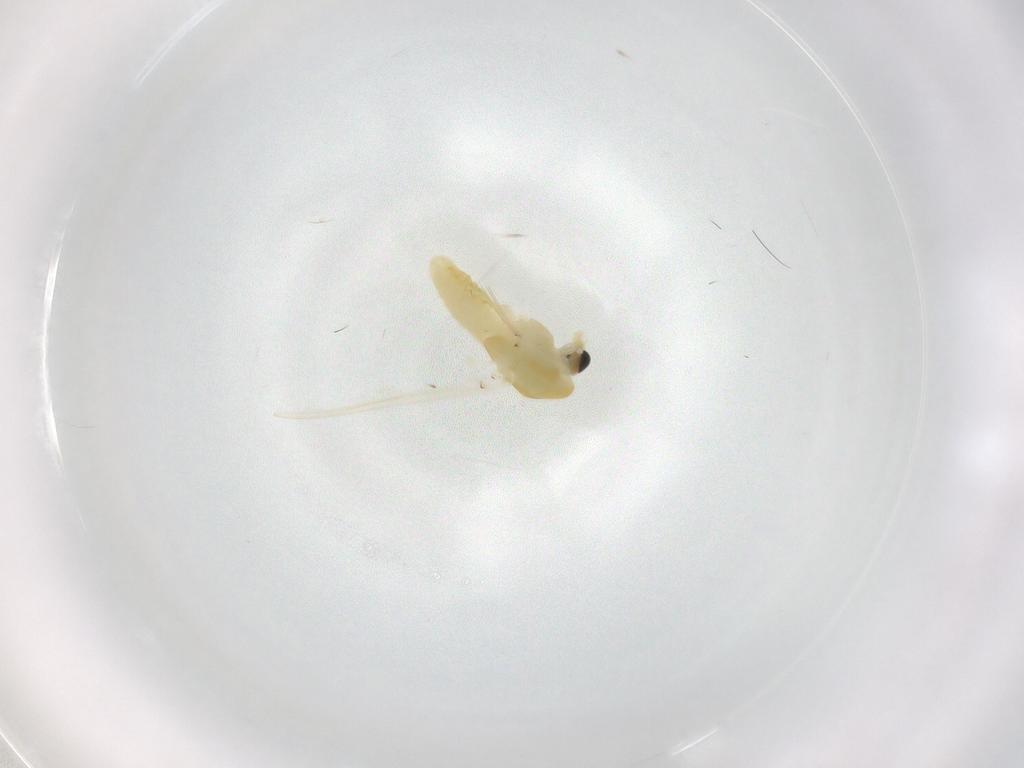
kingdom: Animalia
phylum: Arthropoda
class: Insecta
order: Diptera
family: Chironomidae
